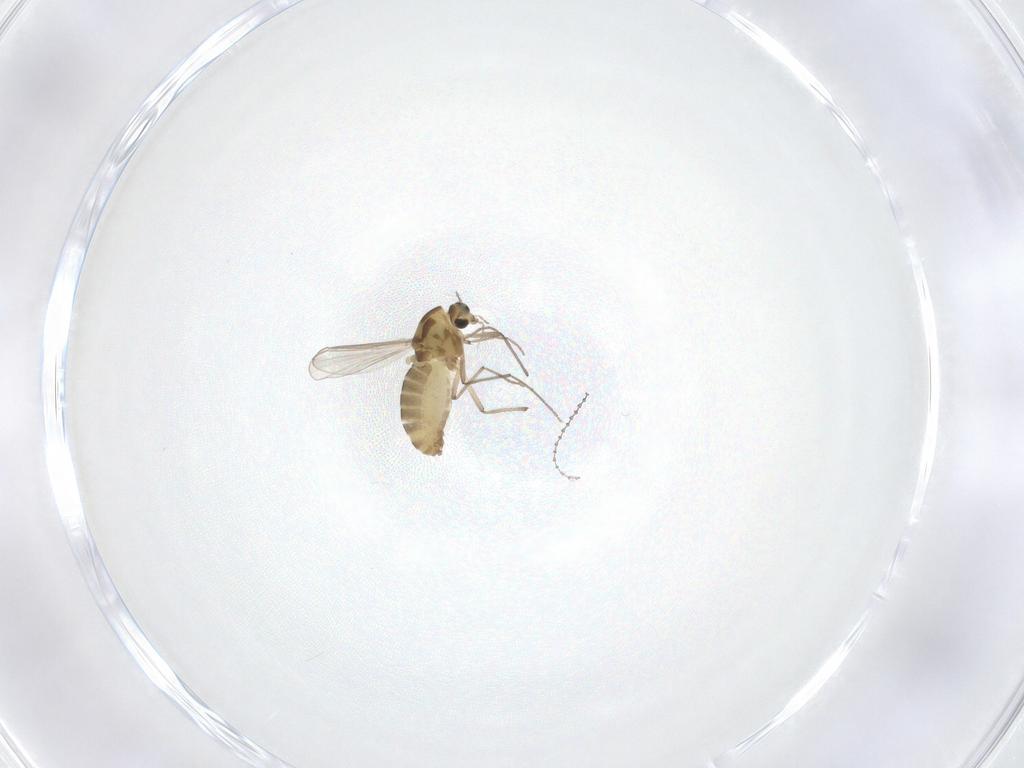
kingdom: Animalia
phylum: Arthropoda
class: Insecta
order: Diptera
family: Chironomidae
